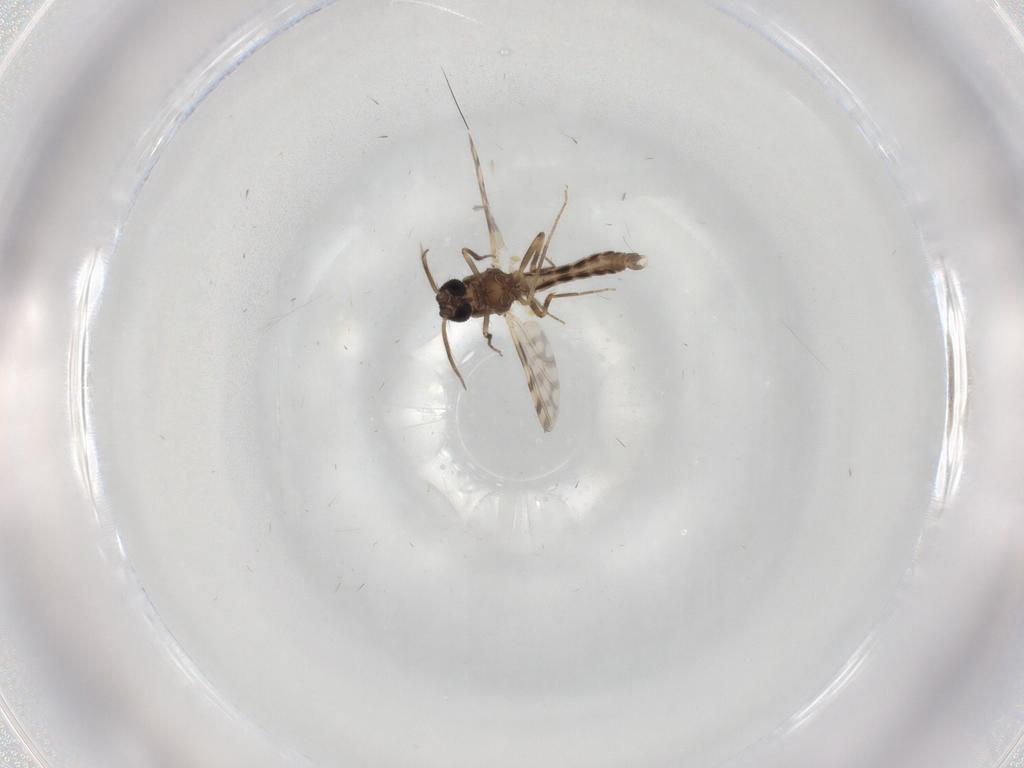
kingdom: Animalia
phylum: Arthropoda
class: Insecta
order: Diptera
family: Ceratopogonidae
